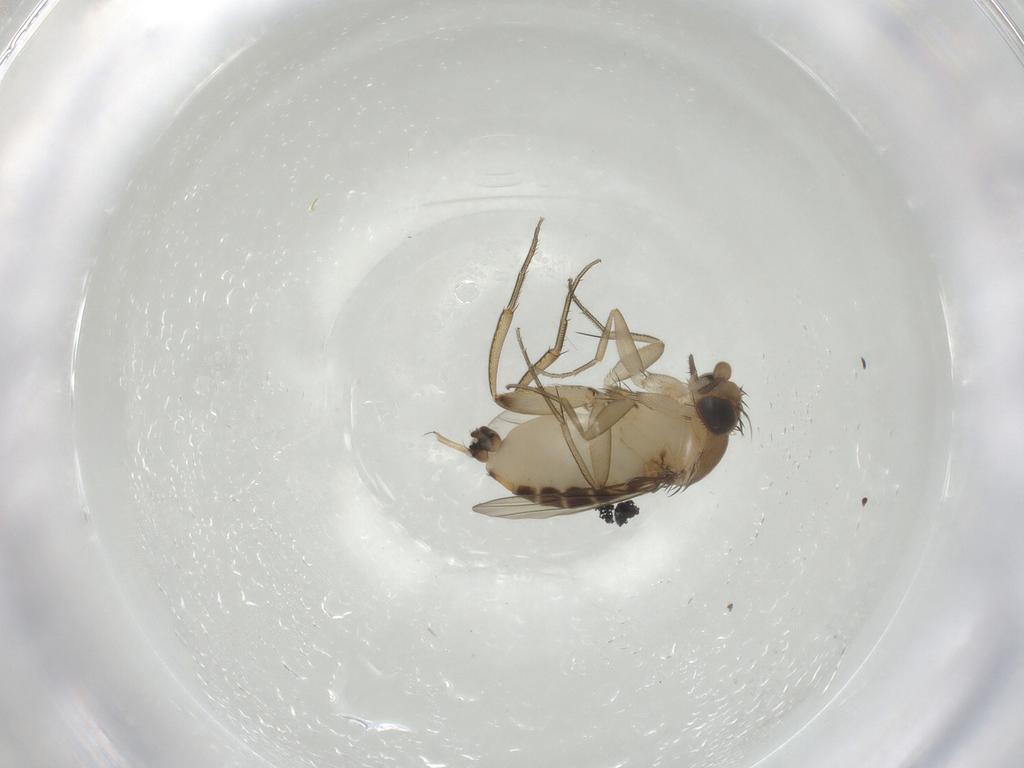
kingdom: Animalia
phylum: Arthropoda
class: Insecta
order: Diptera
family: Phoridae
